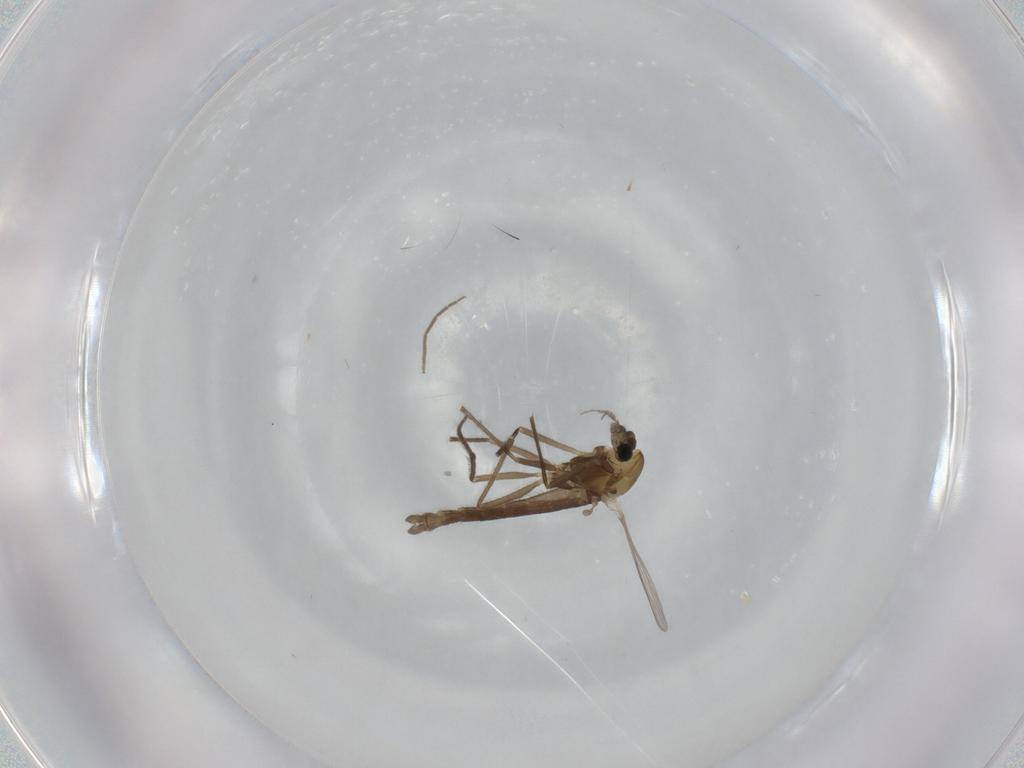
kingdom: Animalia
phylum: Arthropoda
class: Insecta
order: Diptera
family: Chironomidae
